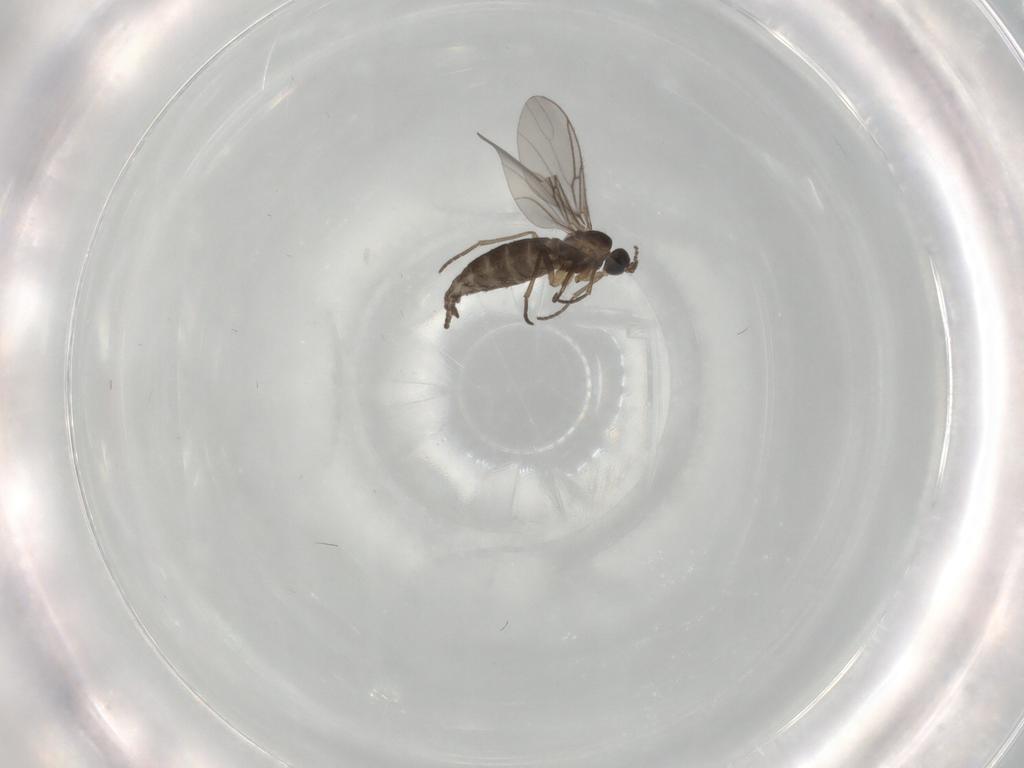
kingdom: Animalia
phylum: Arthropoda
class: Insecta
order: Diptera
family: Sciaridae
